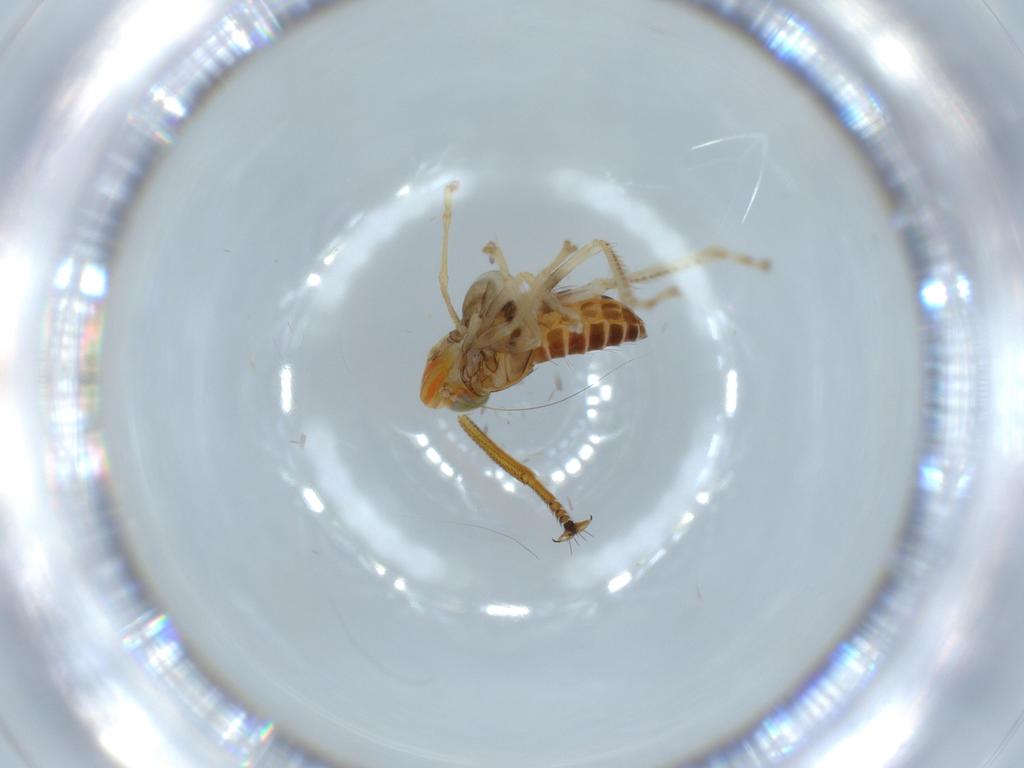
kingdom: Animalia
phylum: Arthropoda
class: Insecta
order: Hemiptera
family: Cicadellidae
